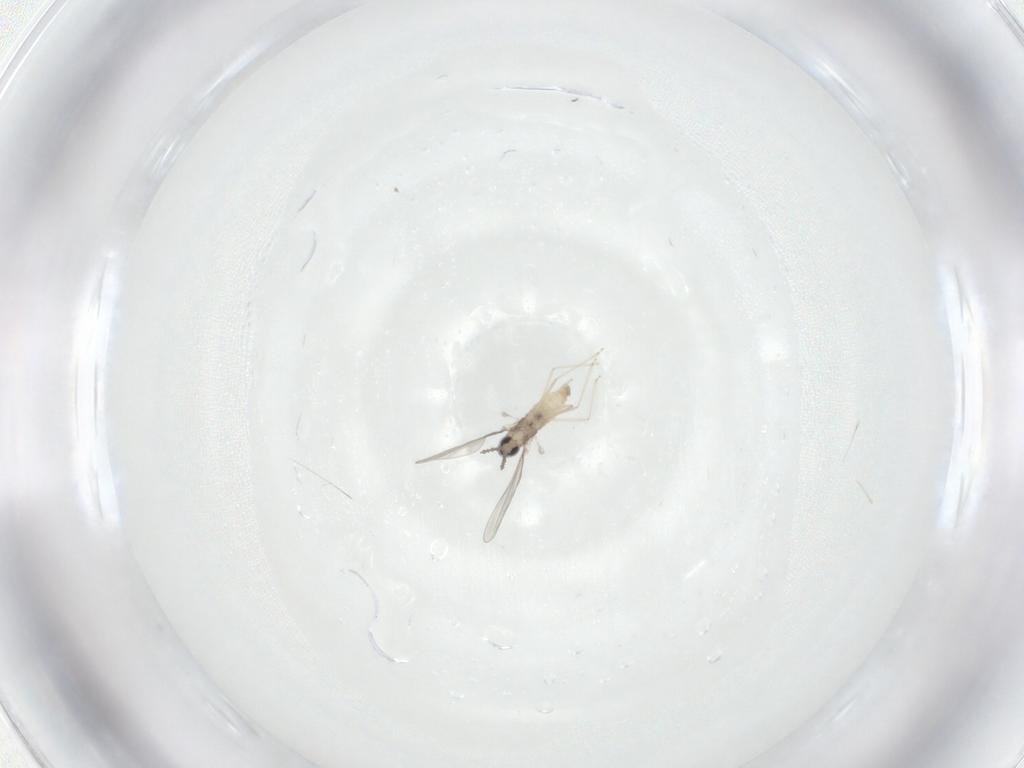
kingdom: Animalia
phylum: Arthropoda
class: Insecta
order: Diptera
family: Cecidomyiidae
